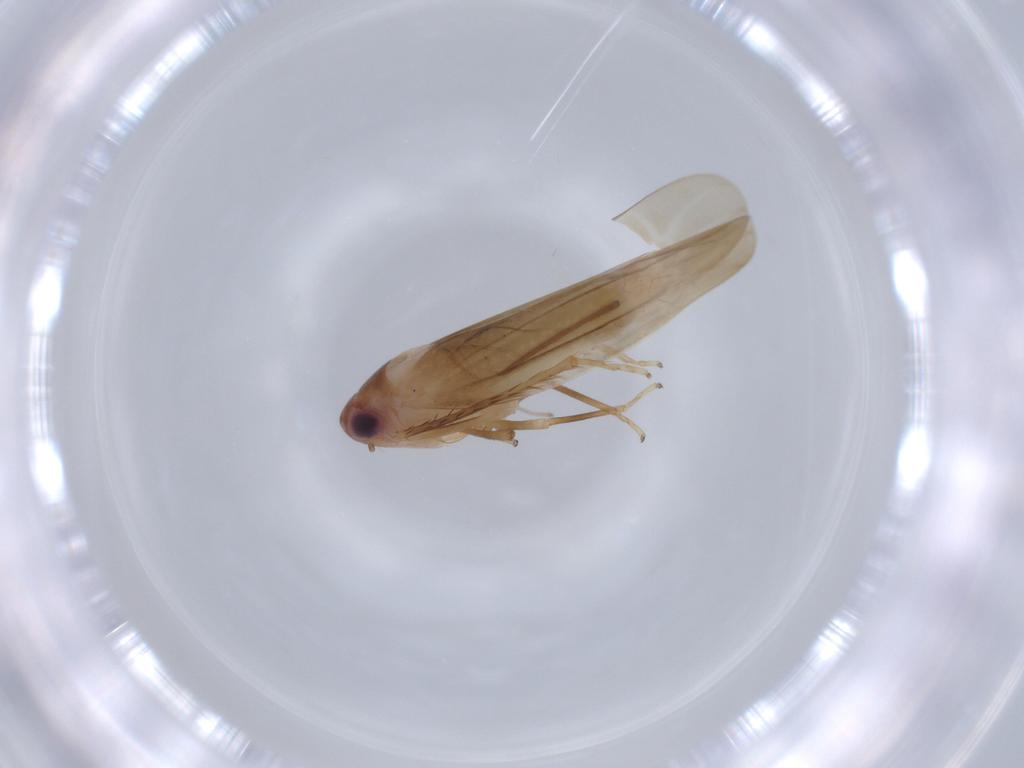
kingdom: Animalia
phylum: Arthropoda
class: Insecta
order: Hemiptera
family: Cicadellidae
